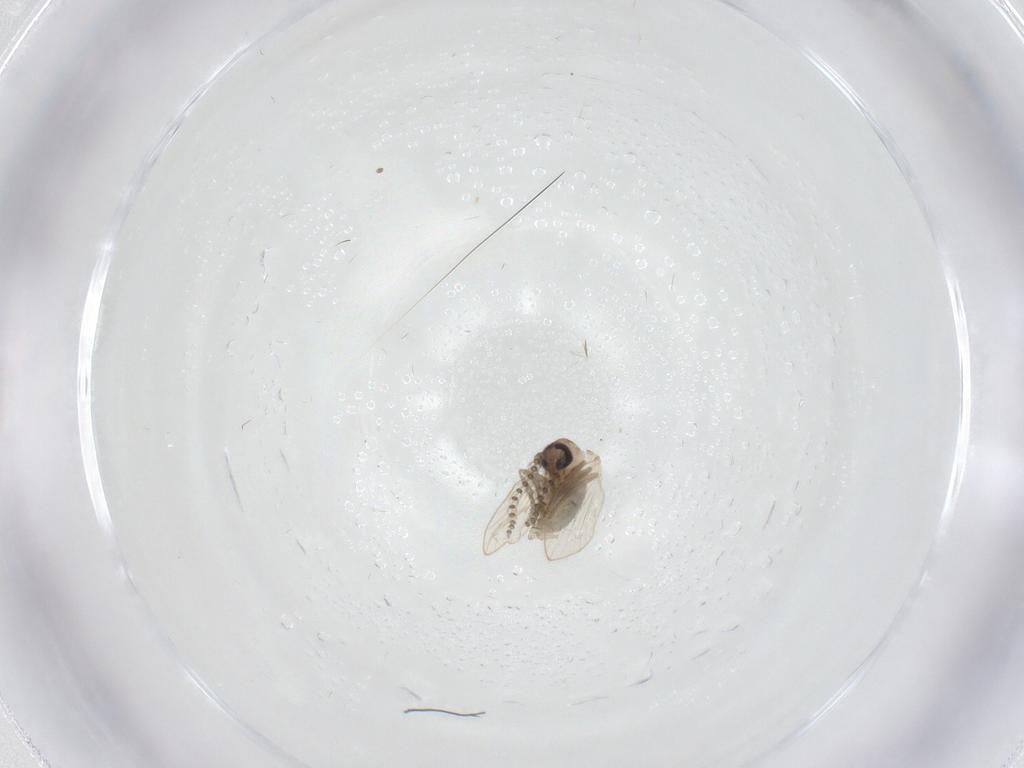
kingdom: Animalia
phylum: Arthropoda
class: Insecta
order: Diptera
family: Psychodidae
